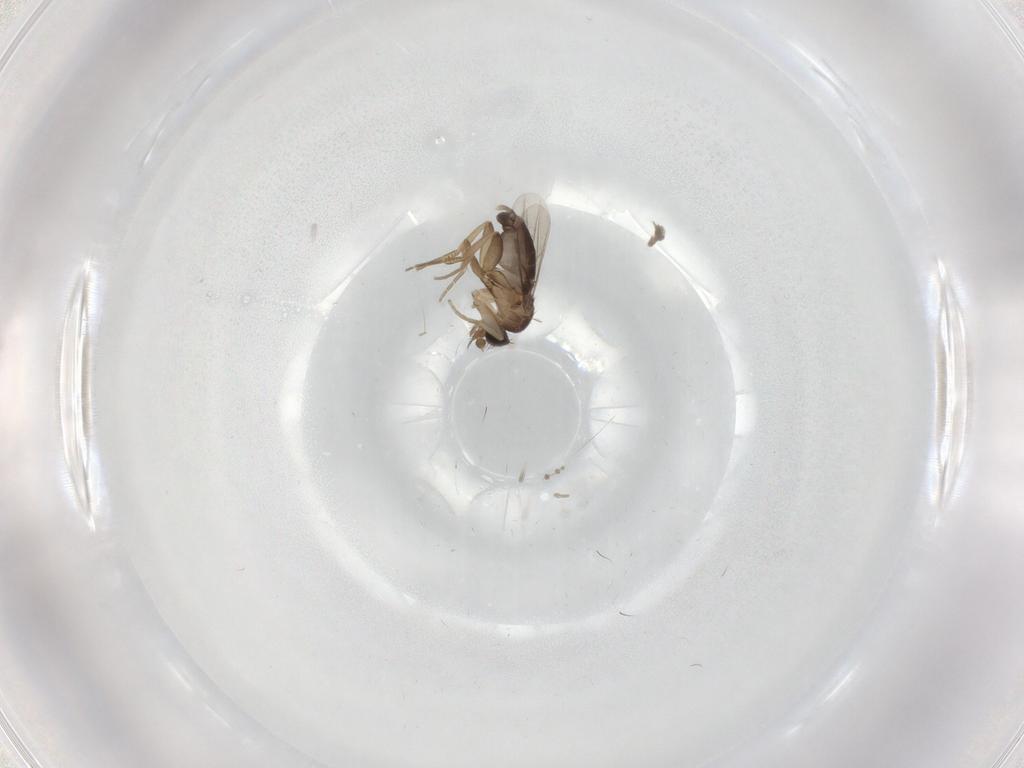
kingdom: Animalia
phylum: Arthropoda
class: Insecta
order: Diptera
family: Phoridae
